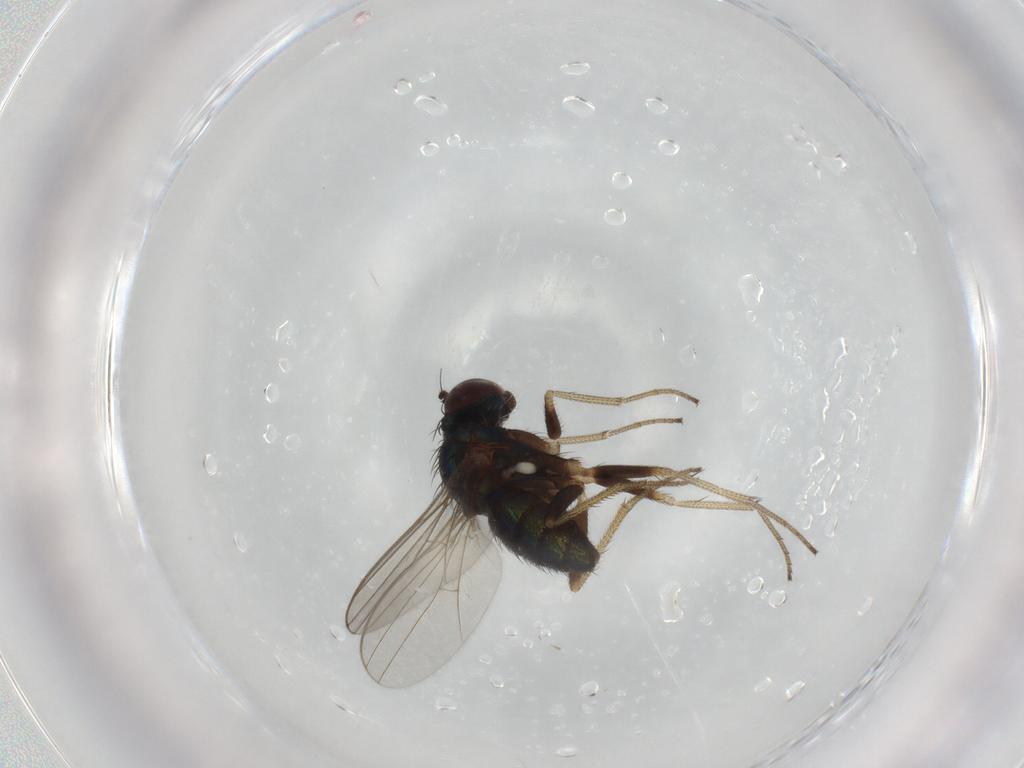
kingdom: Animalia
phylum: Arthropoda
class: Insecta
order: Diptera
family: Dolichopodidae
